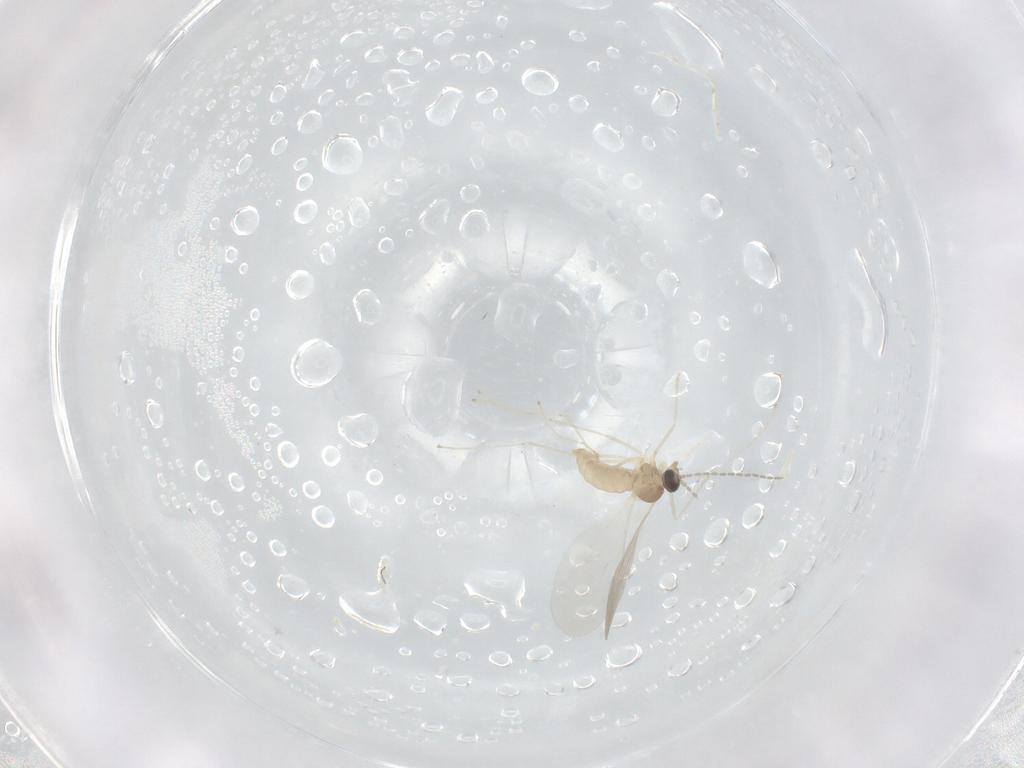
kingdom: Animalia
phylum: Arthropoda
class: Insecta
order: Diptera
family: Cecidomyiidae
